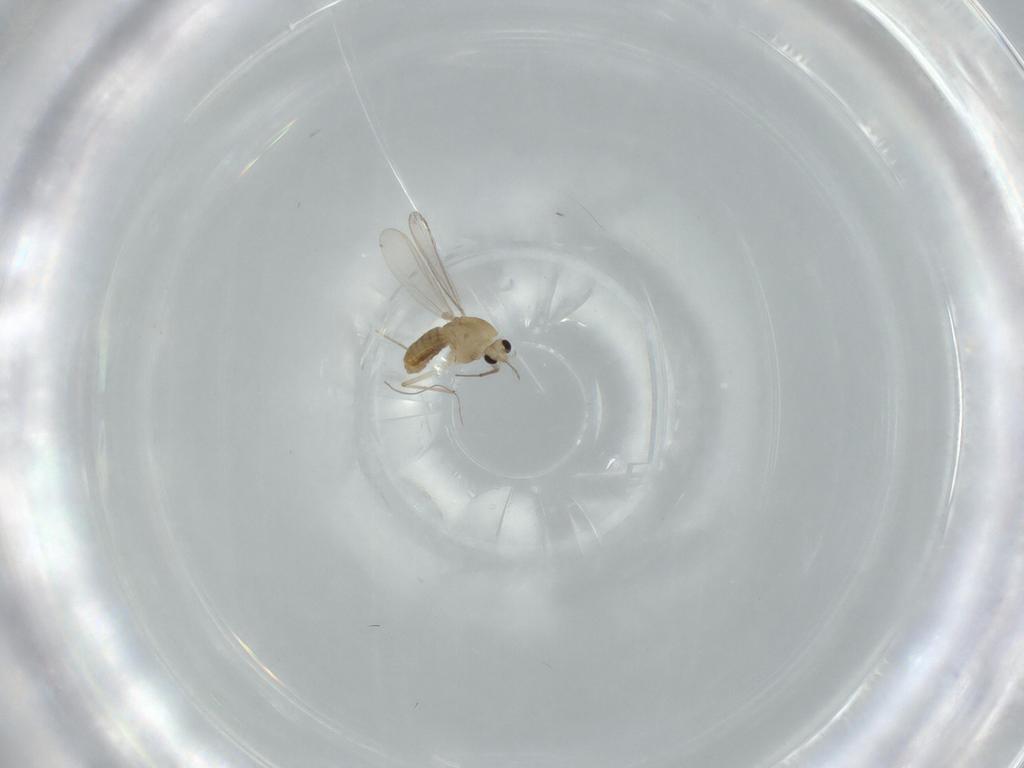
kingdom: Animalia
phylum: Arthropoda
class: Insecta
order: Diptera
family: Chironomidae
